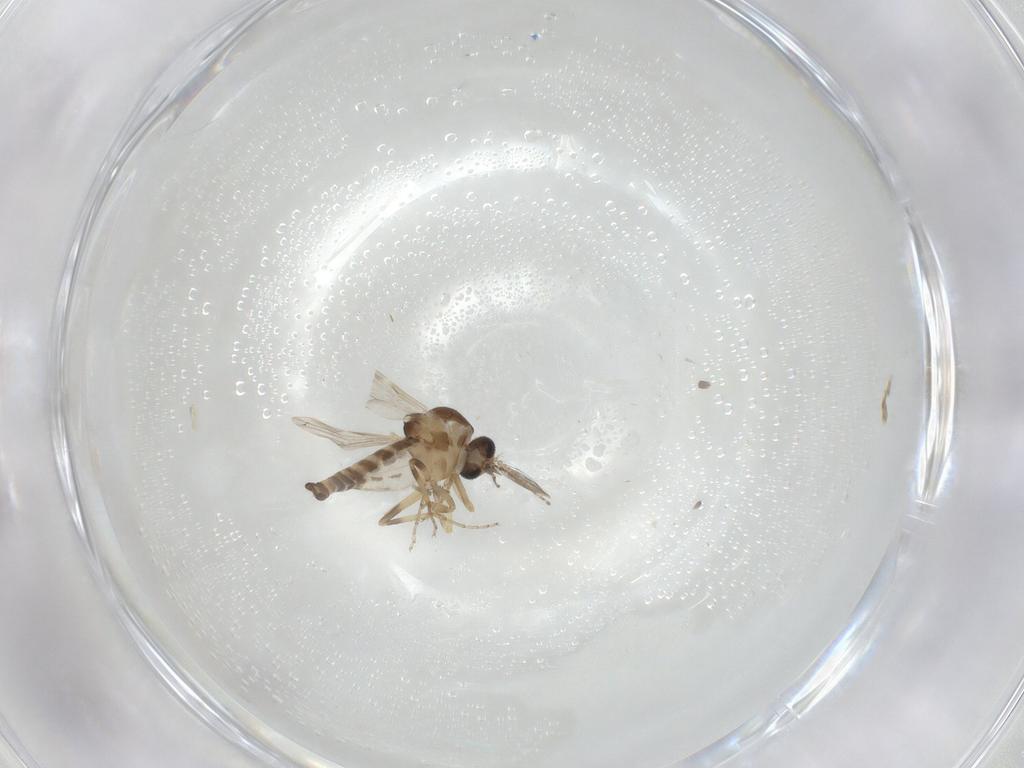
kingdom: Animalia
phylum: Arthropoda
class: Insecta
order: Diptera
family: Ceratopogonidae
